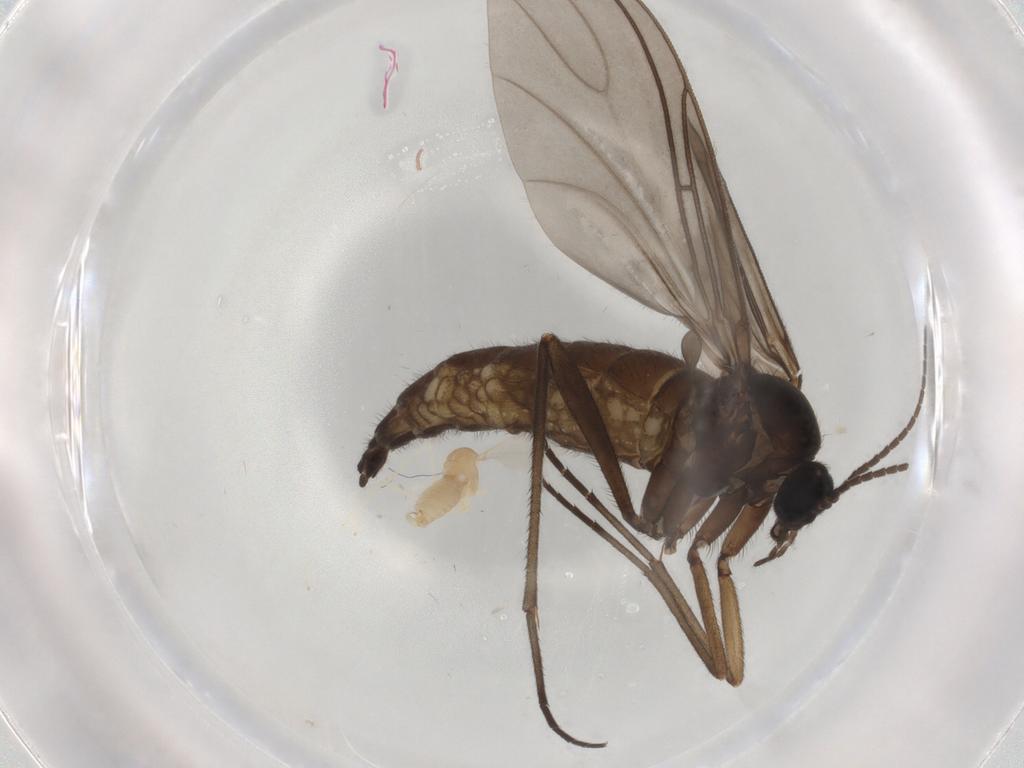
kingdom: Animalia
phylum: Arthropoda
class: Insecta
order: Diptera
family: Sciaridae
